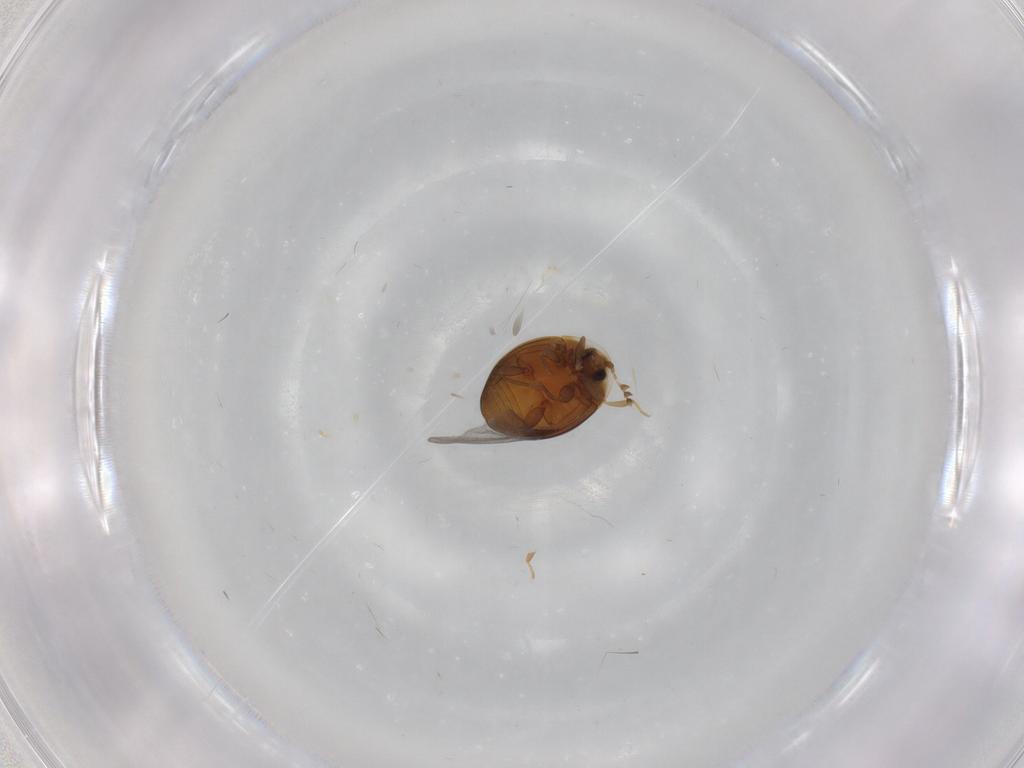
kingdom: Animalia
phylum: Arthropoda
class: Insecta
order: Coleoptera
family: Corylophidae
